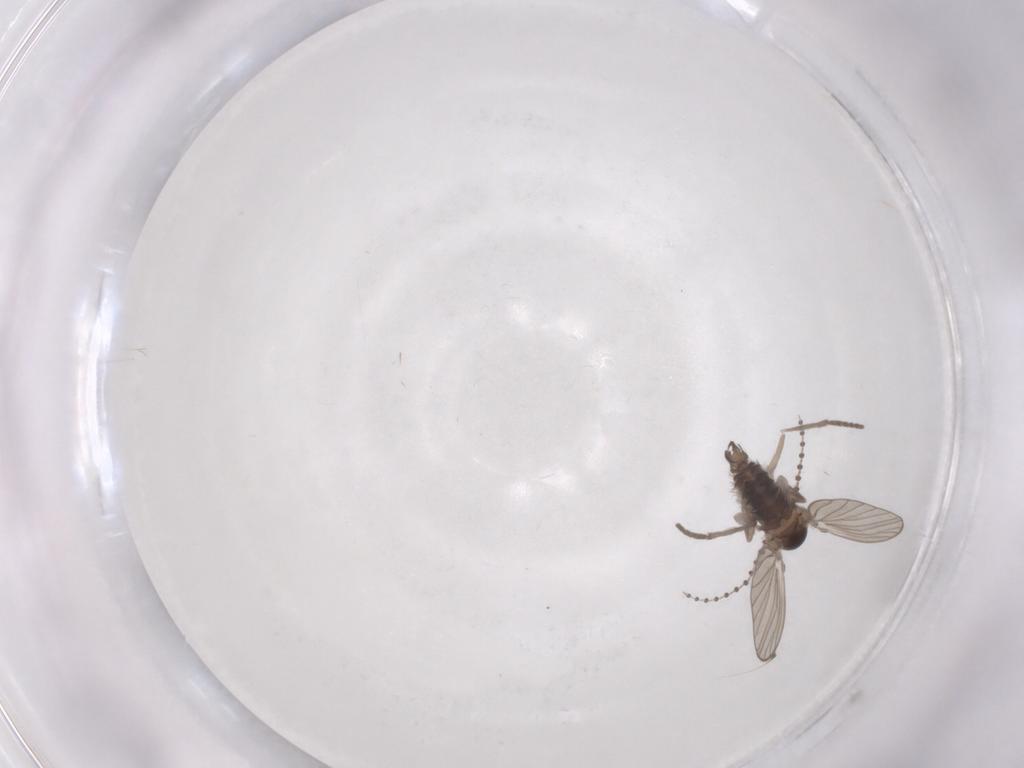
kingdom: Animalia
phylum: Arthropoda
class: Insecta
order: Diptera
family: Psychodidae
